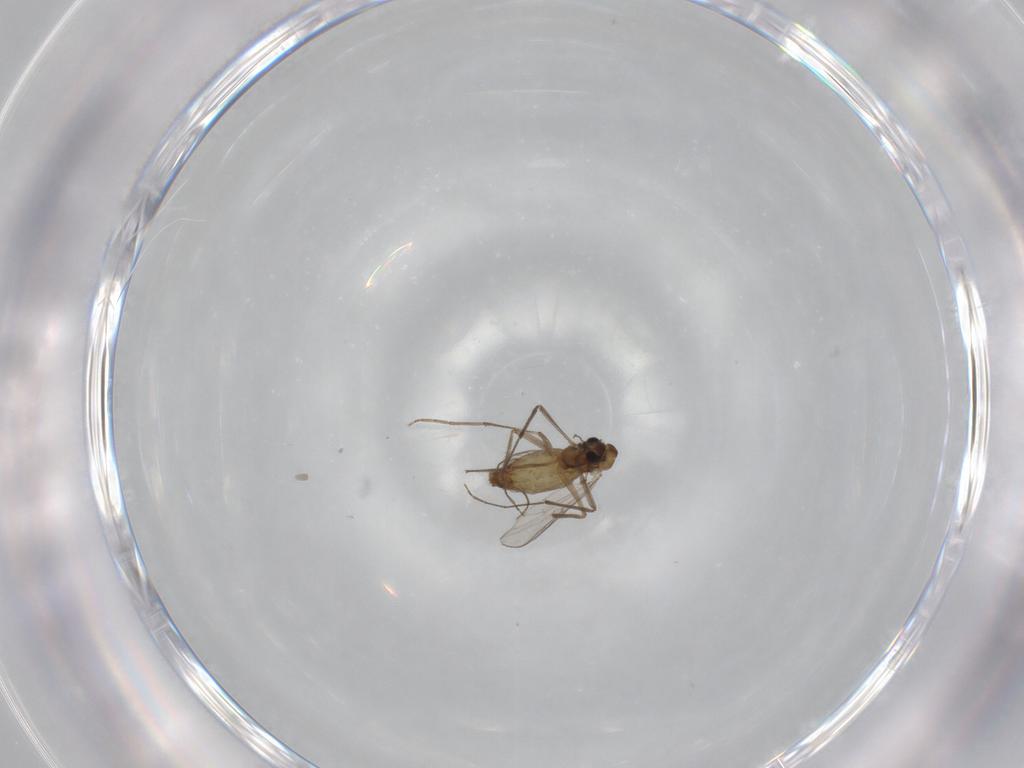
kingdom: Animalia
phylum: Arthropoda
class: Insecta
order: Diptera
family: Chironomidae
